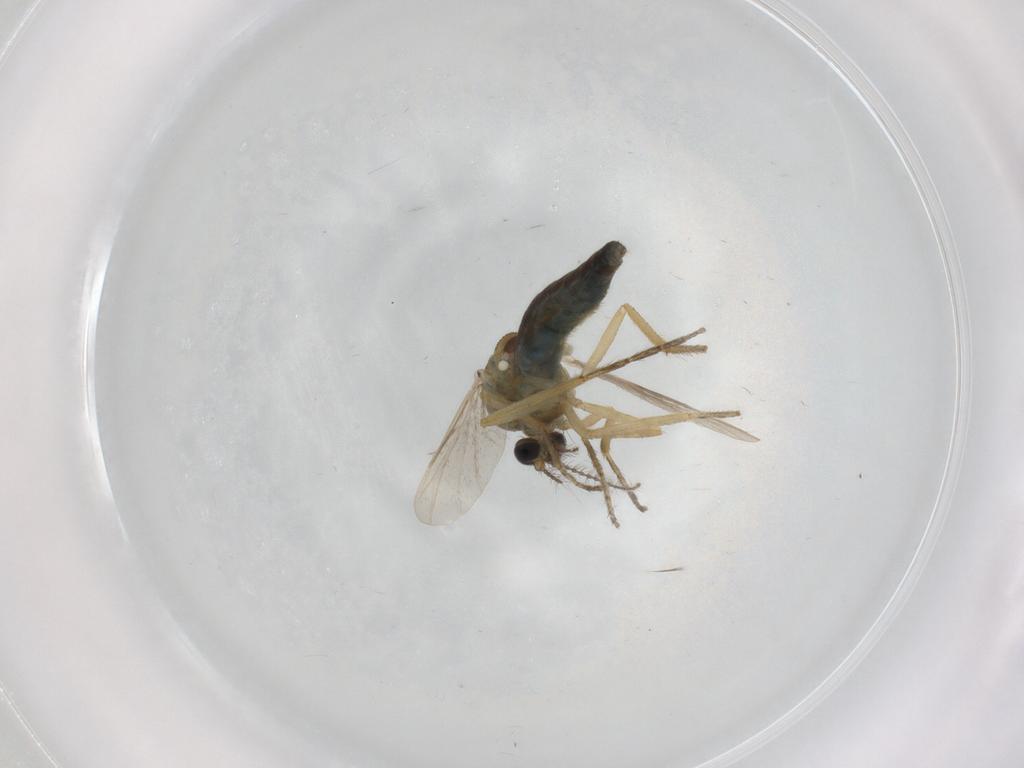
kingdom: Animalia
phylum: Arthropoda
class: Insecta
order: Diptera
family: Ceratopogonidae
